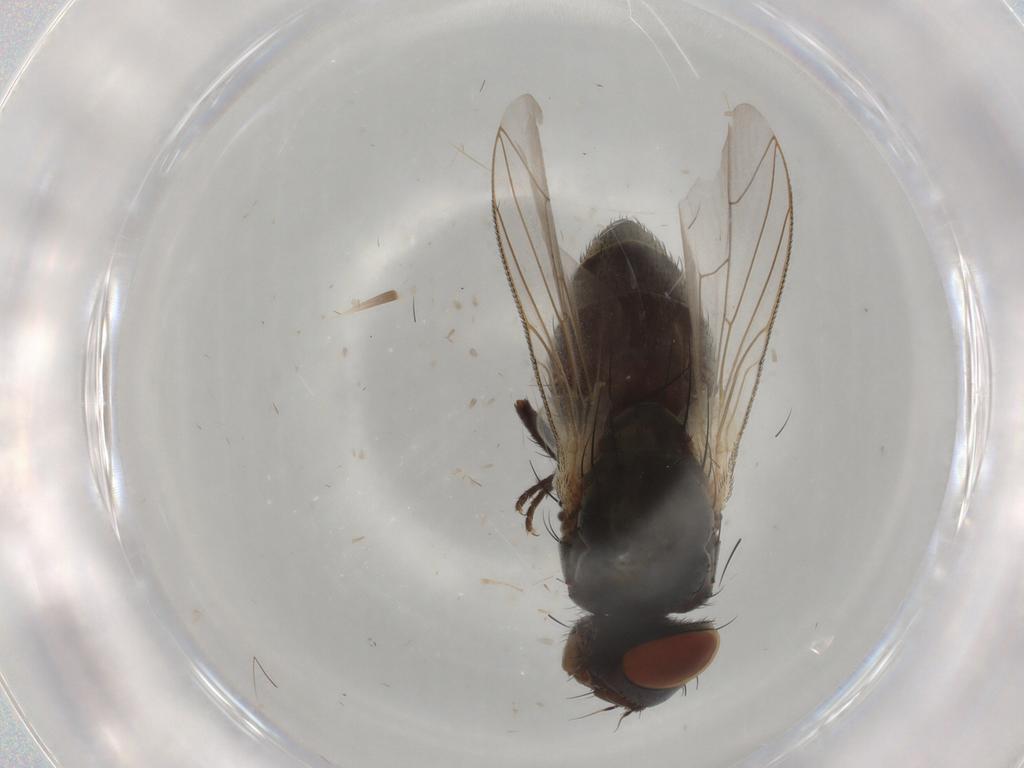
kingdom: Animalia
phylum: Arthropoda
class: Insecta
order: Diptera
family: Sarcophagidae
